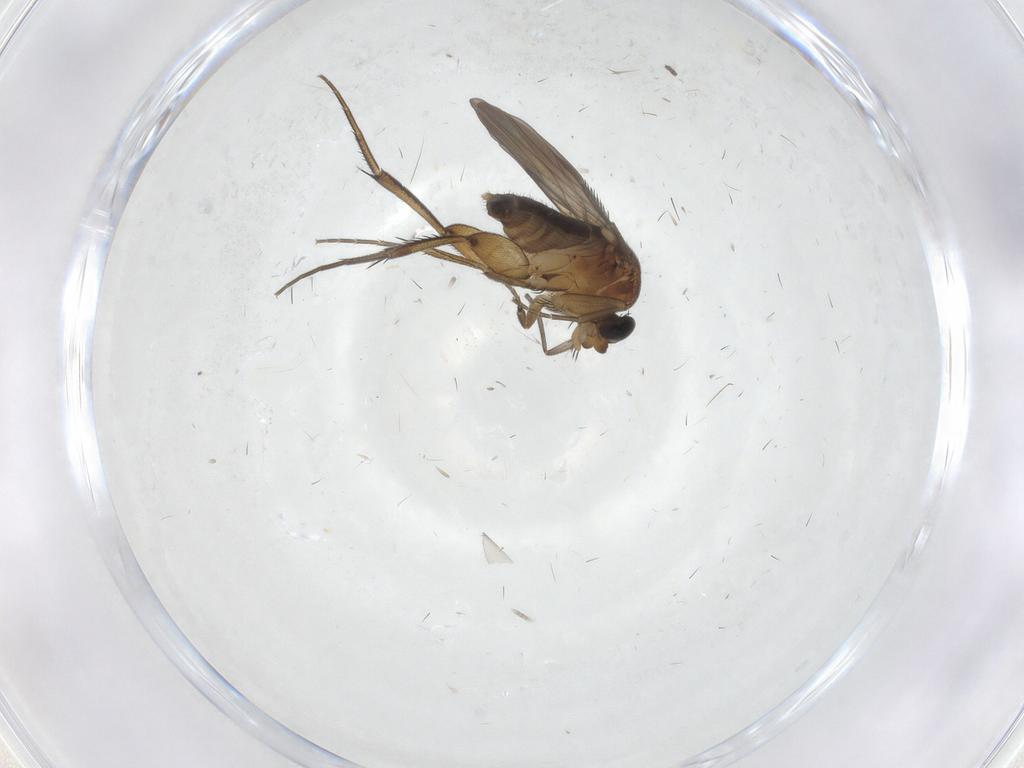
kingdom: Animalia
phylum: Arthropoda
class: Insecta
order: Diptera
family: Phoridae
